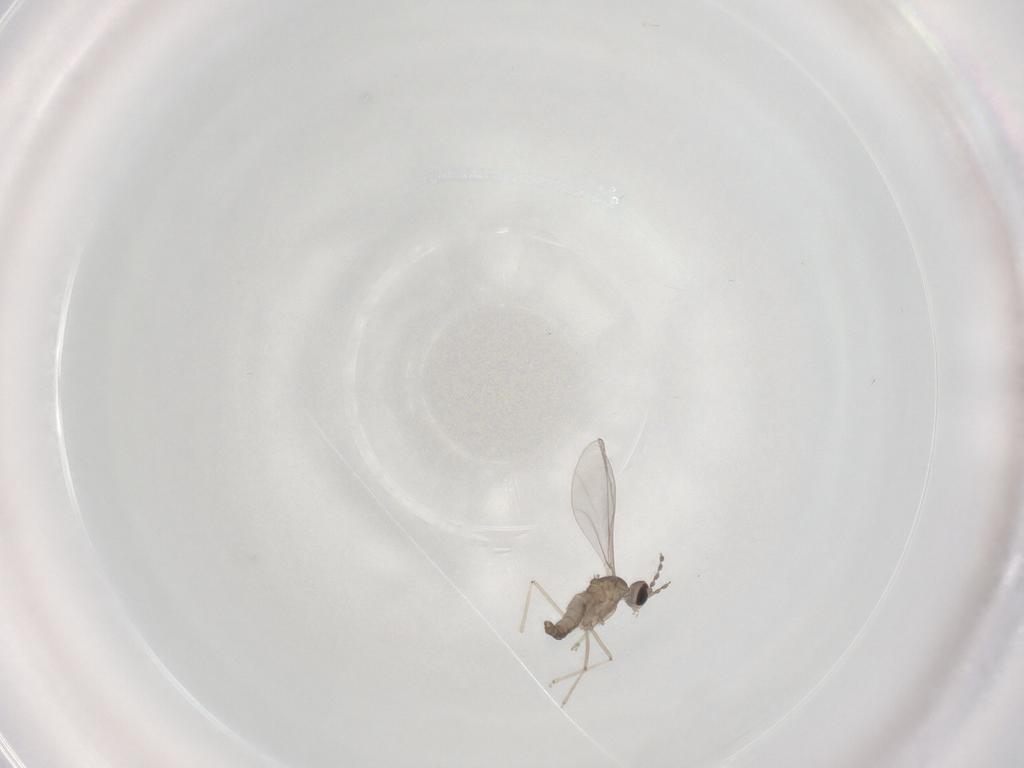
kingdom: Animalia
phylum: Arthropoda
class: Insecta
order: Diptera
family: Cecidomyiidae
